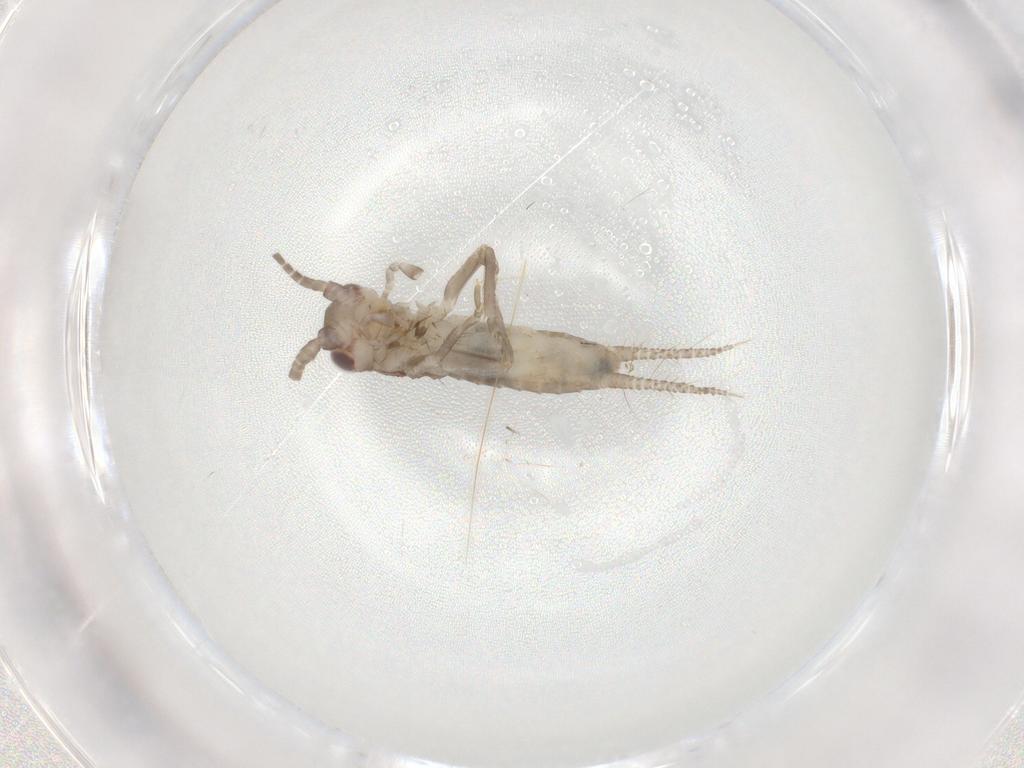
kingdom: Animalia
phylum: Arthropoda
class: Insecta
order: Orthoptera
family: Gryllidae
